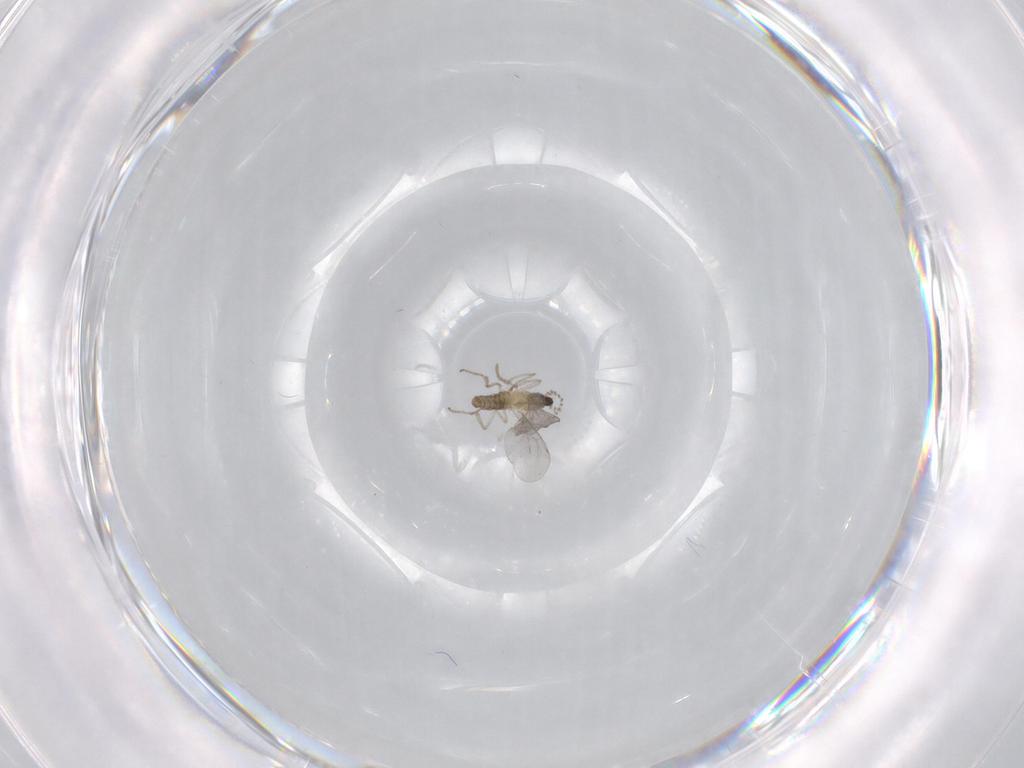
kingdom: Animalia
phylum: Arthropoda
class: Insecta
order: Diptera
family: Cecidomyiidae
